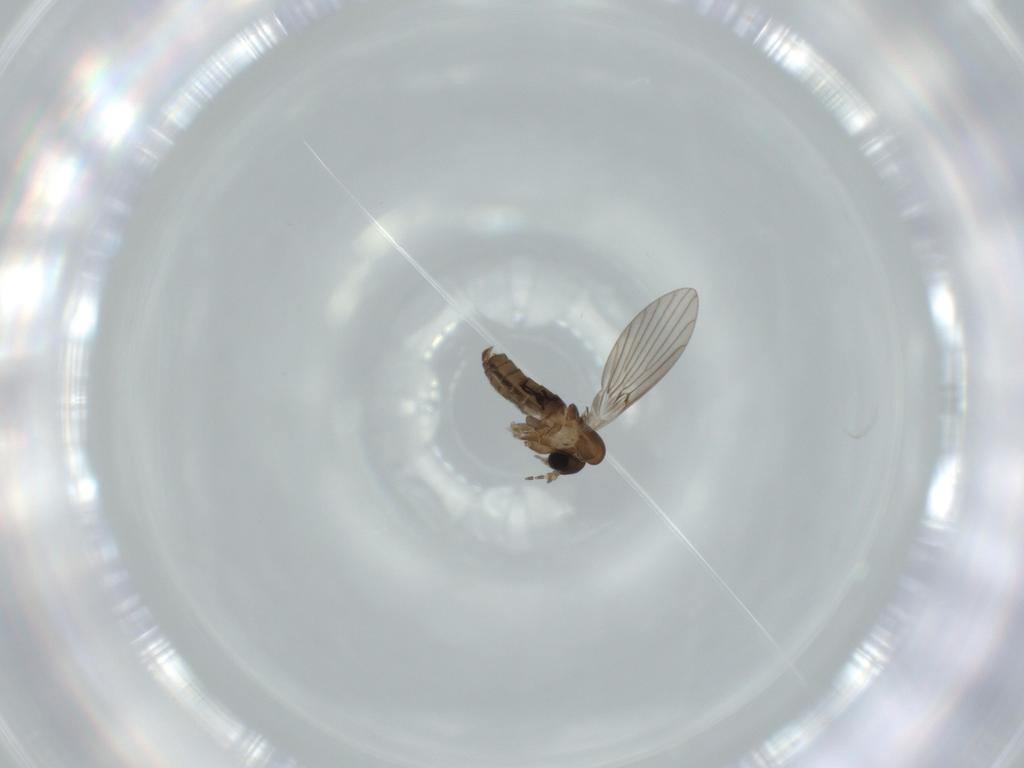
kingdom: Animalia
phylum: Arthropoda
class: Insecta
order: Diptera
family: Psychodidae
